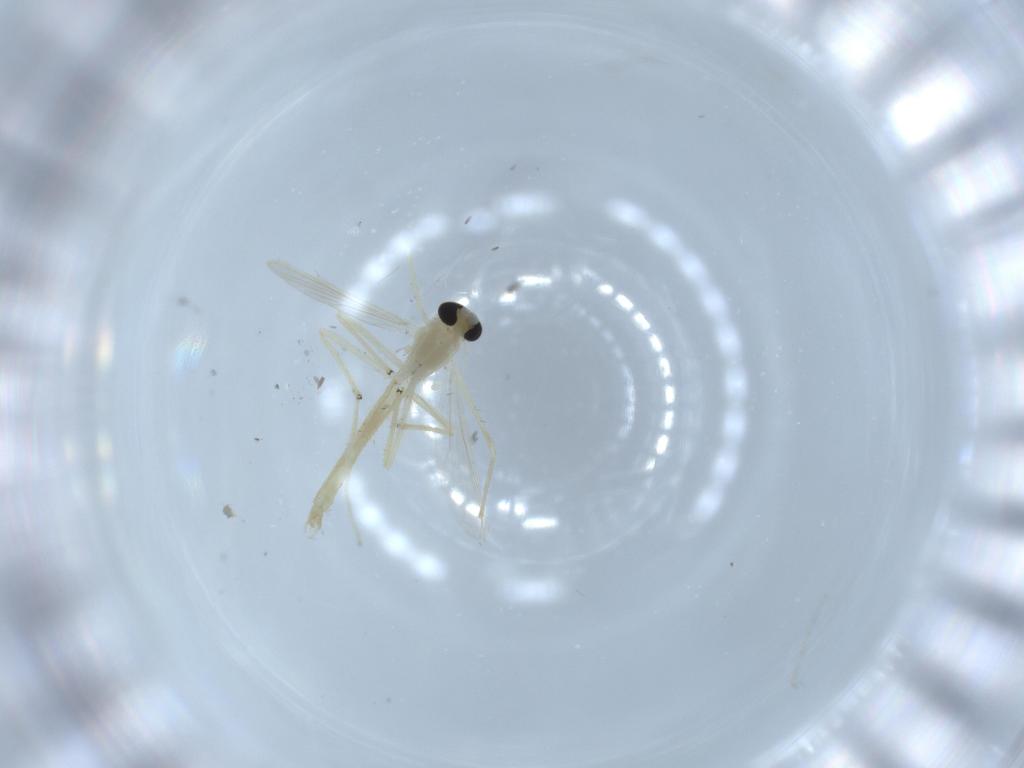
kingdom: Animalia
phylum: Arthropoda
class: Insecta
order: Diptera
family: Chironomidae
